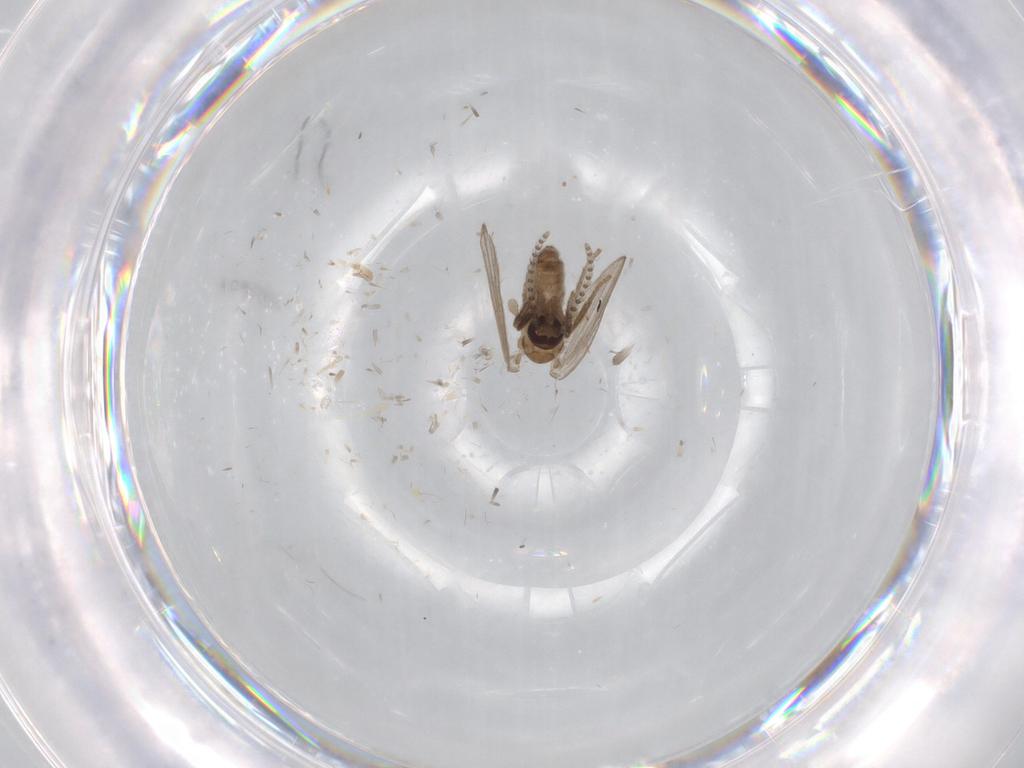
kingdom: Animalia
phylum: Arthropoda
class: Insecta
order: Diptera
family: Psychodidae
